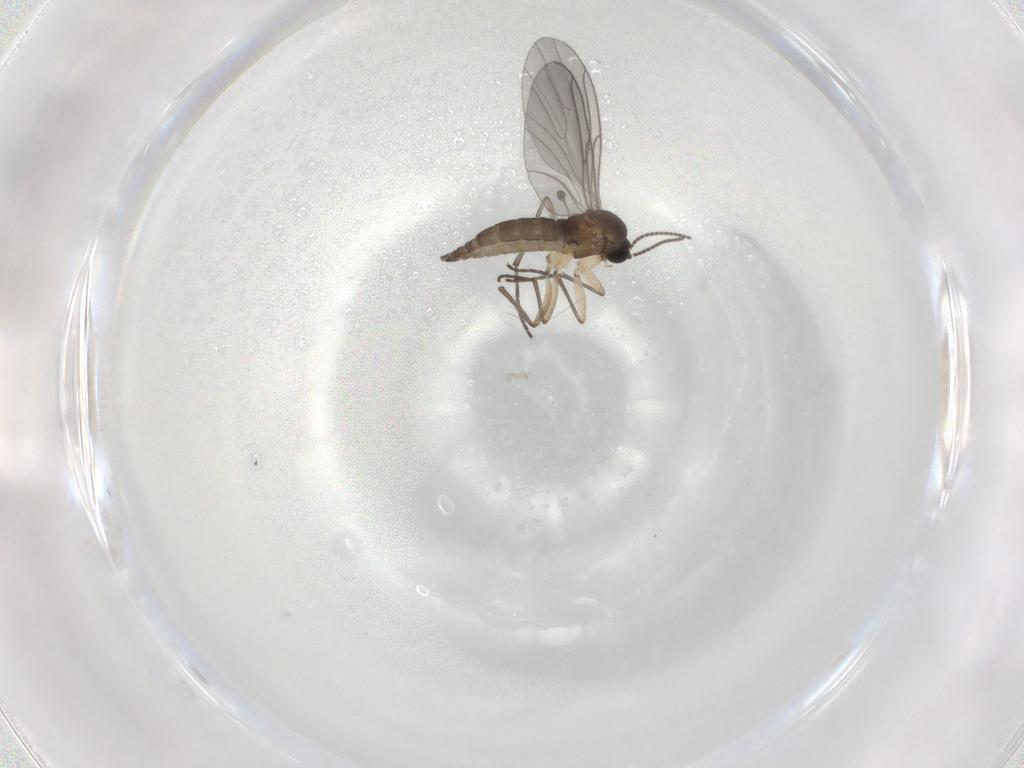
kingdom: Animalia
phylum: Arthropoda
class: Insecta
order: Diptera
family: Sciaridae
